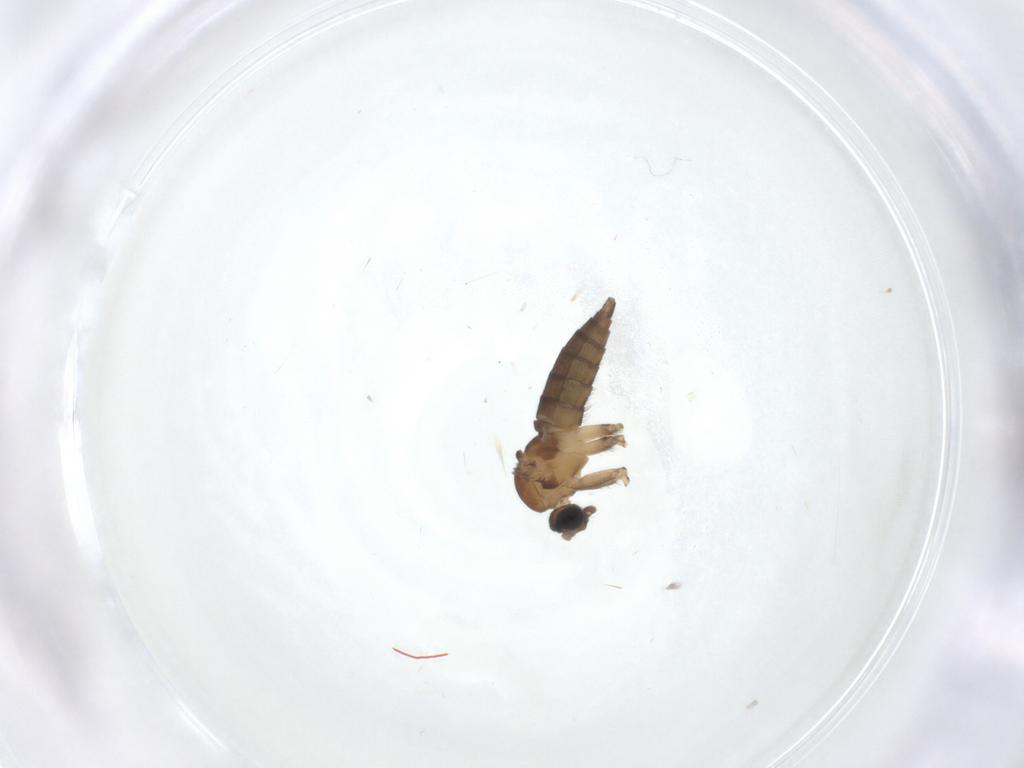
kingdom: Animalia
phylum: Arthropoda
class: Insecta
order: Diptera
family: Sciaridae
